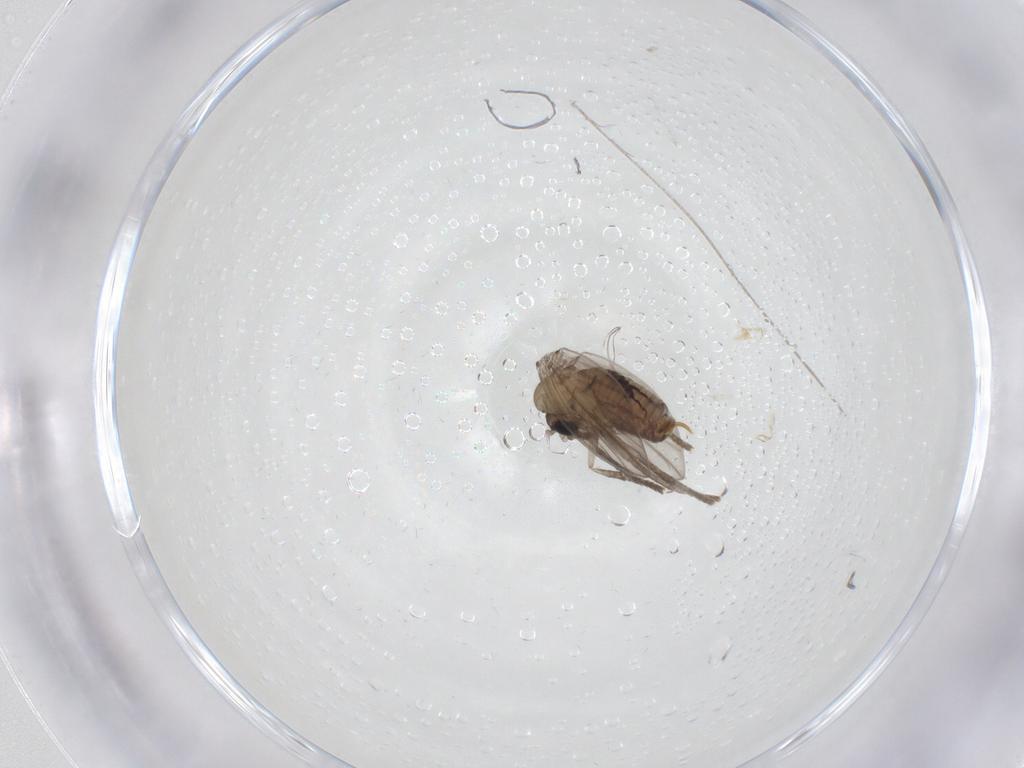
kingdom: Animalia
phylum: Arthropoda
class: Insecta
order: Diptera
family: Psychodidae
